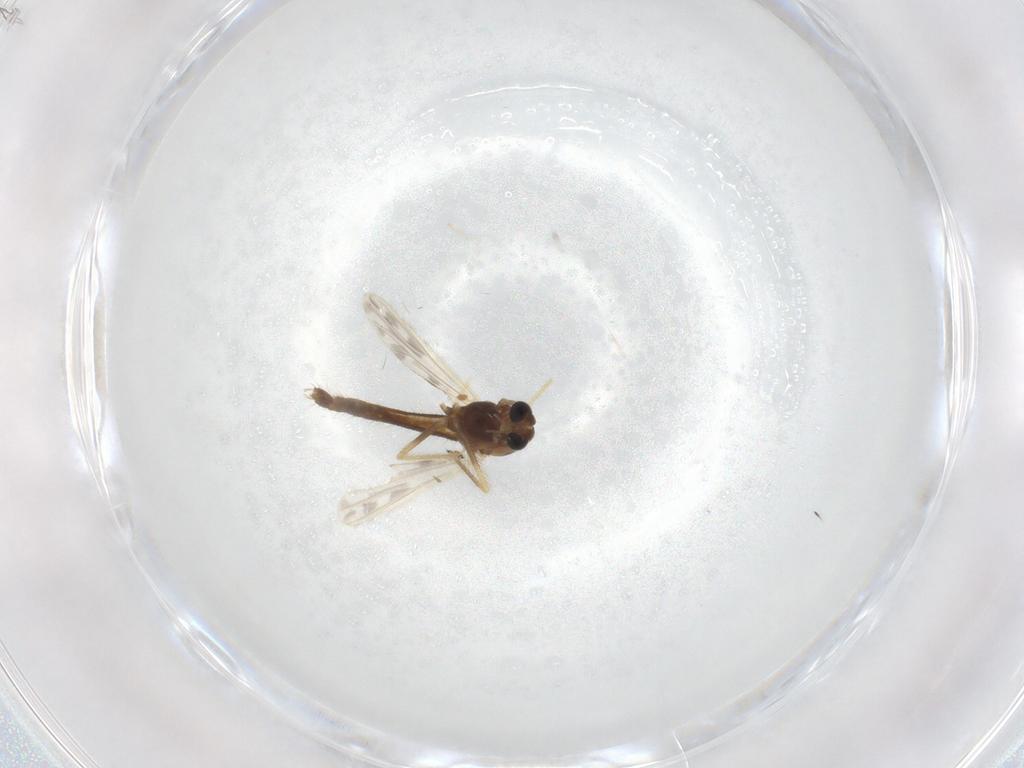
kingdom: Animalia
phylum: Arthropoda
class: Insecta
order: Diptera
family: Chironomidae
